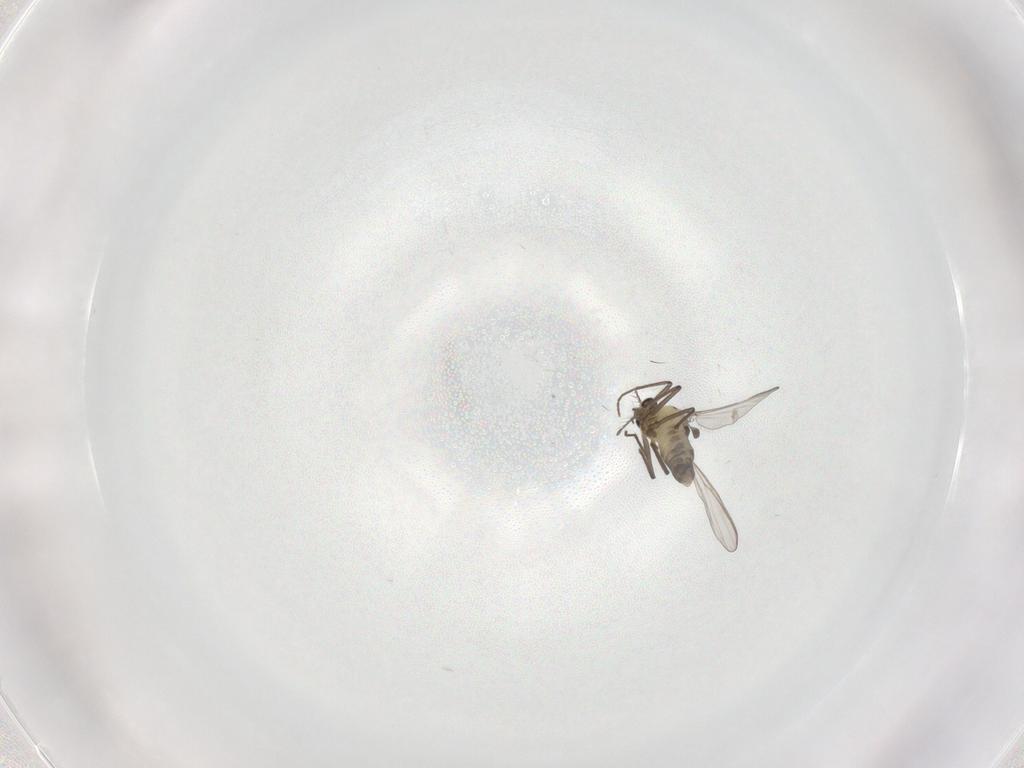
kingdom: Animalia
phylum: Arthropoda
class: Insecta
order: Diptera
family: Chironomidae
